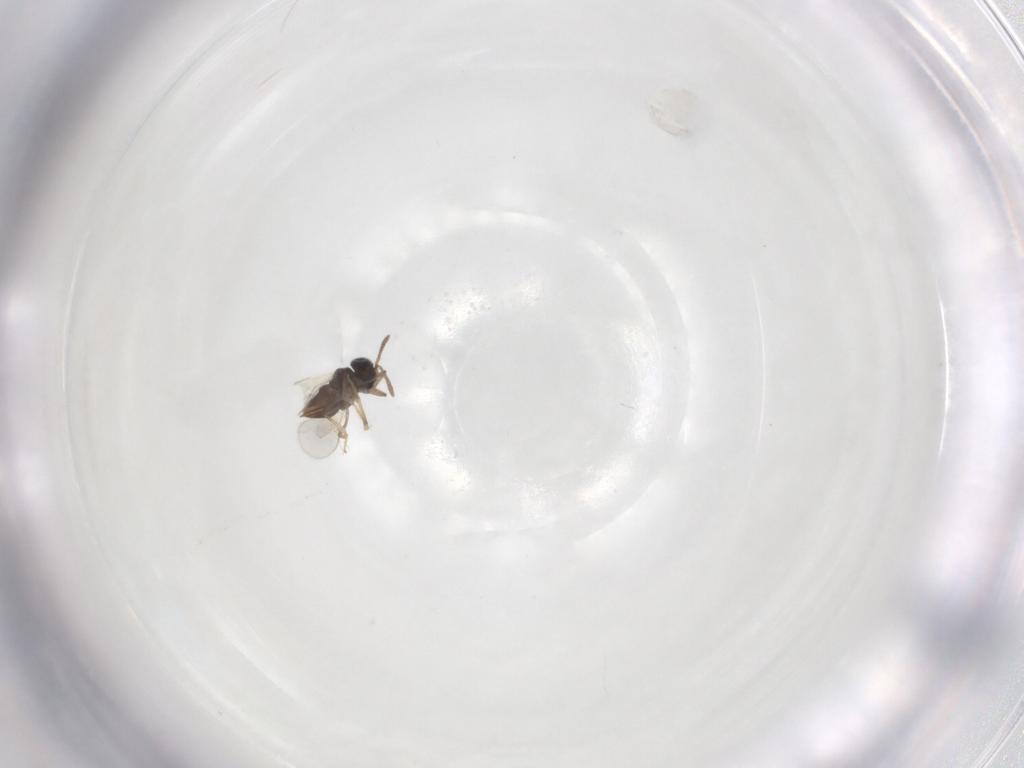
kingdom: Animalia
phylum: Arthropoda
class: Insecta
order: Hymenoptera
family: Encyrtidae
